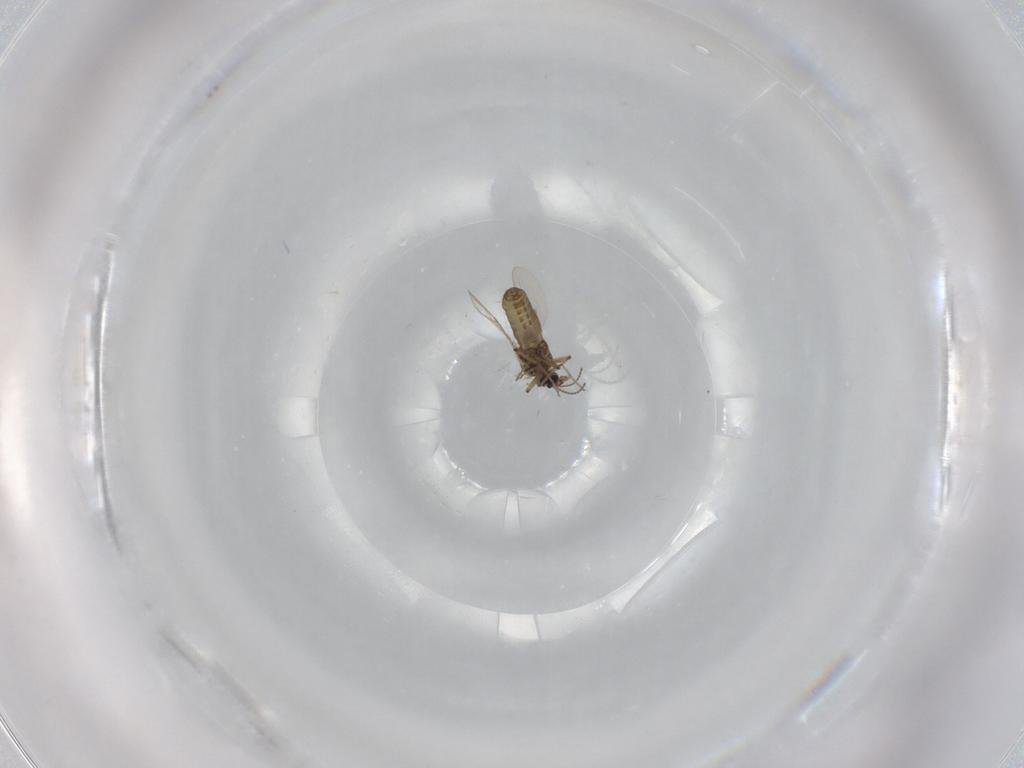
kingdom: Animalia
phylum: Arthropoda
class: Insecta
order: Diptera
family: Ceratopogonidae
